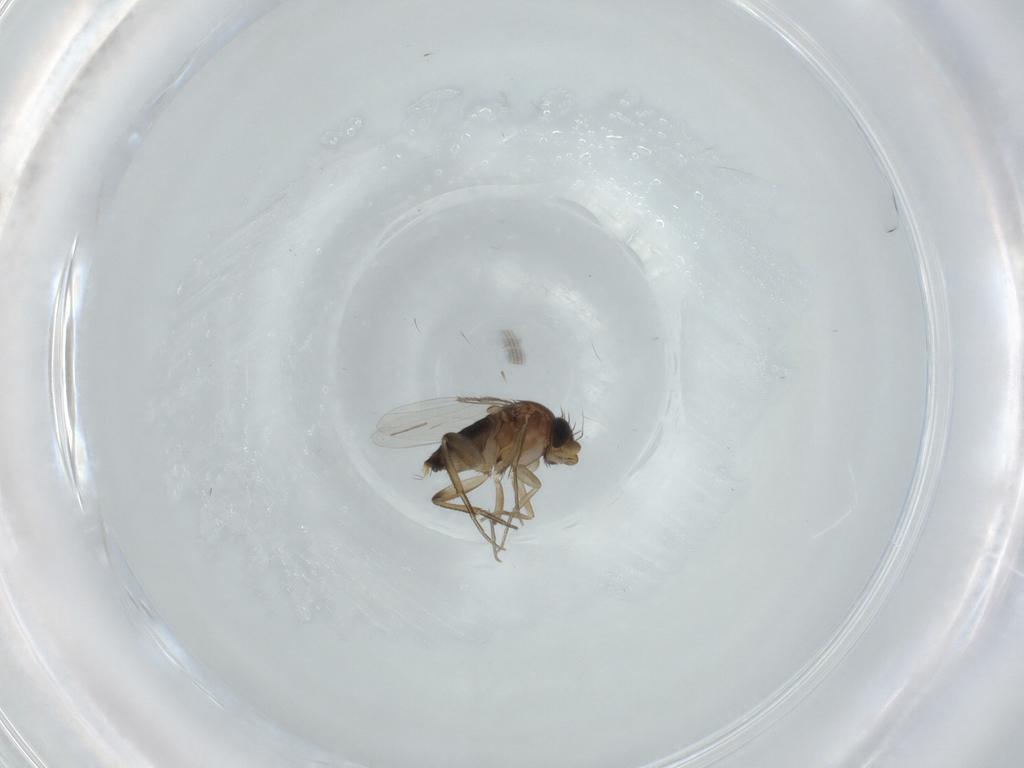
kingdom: Animalia
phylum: Arthropoda
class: Insecta
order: Diptera
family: Phoridae
